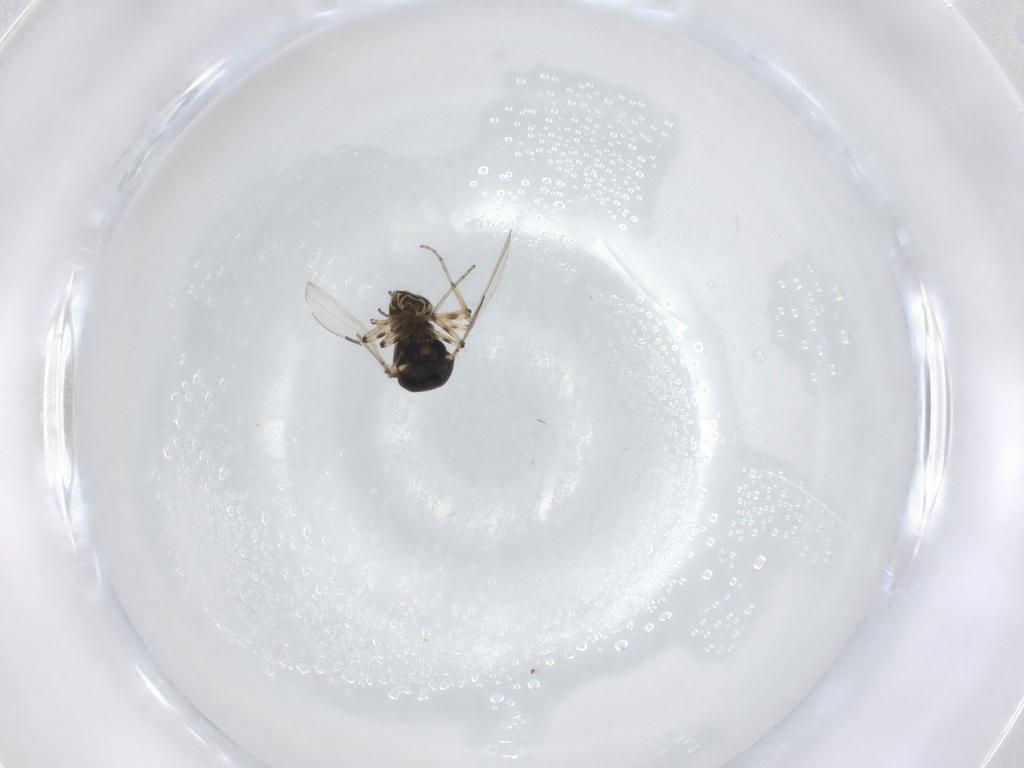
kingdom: Animalia
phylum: Arthropoda
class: Insecta
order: Diptera
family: Ceratopogonidae
